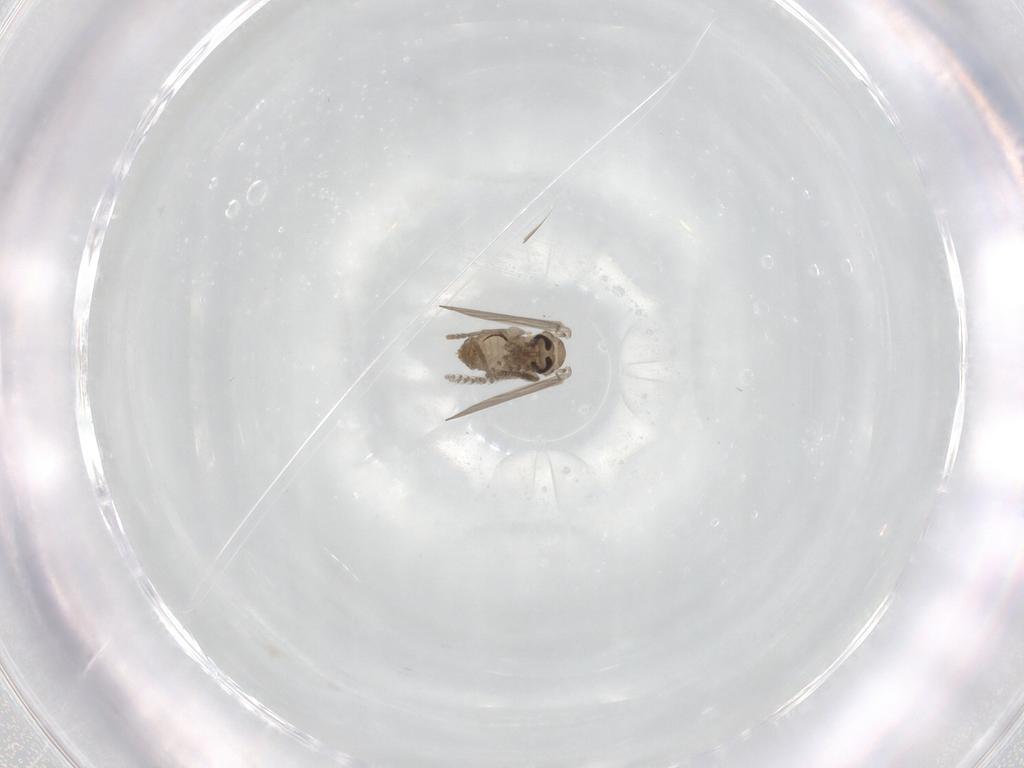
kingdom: Animalia
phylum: Arthropoda
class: Insecta
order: Diptera
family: Psychodidae
